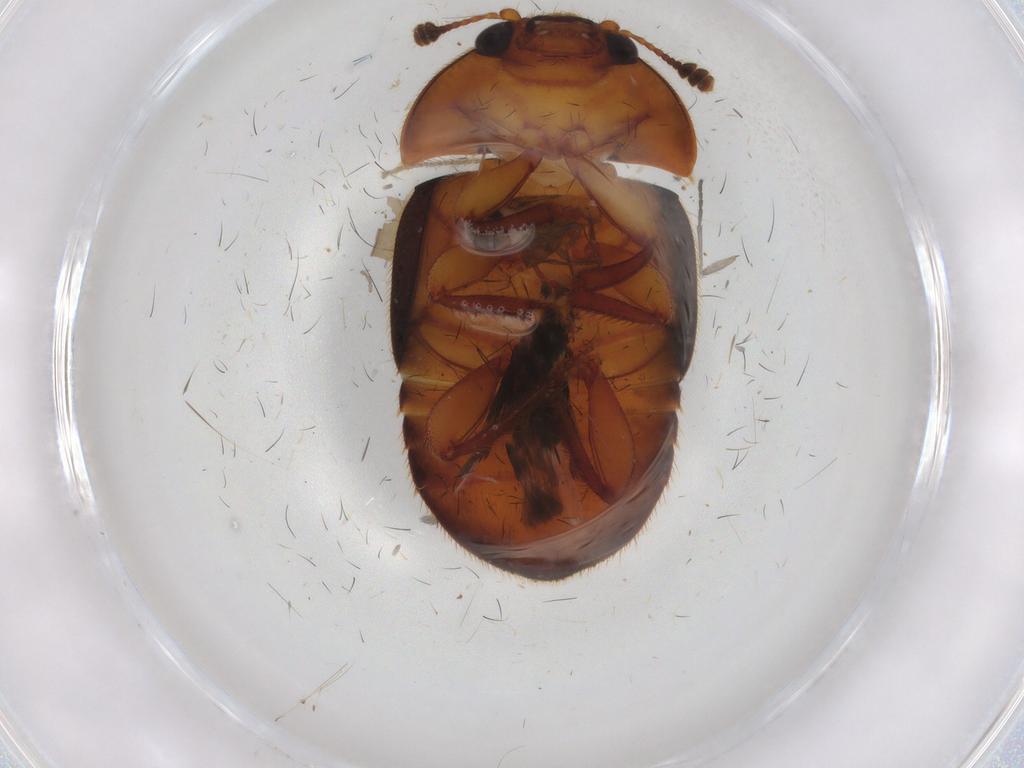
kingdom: Animalia
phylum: Arthropoda
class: Insecta
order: Coleoptera
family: Nitidulidae
